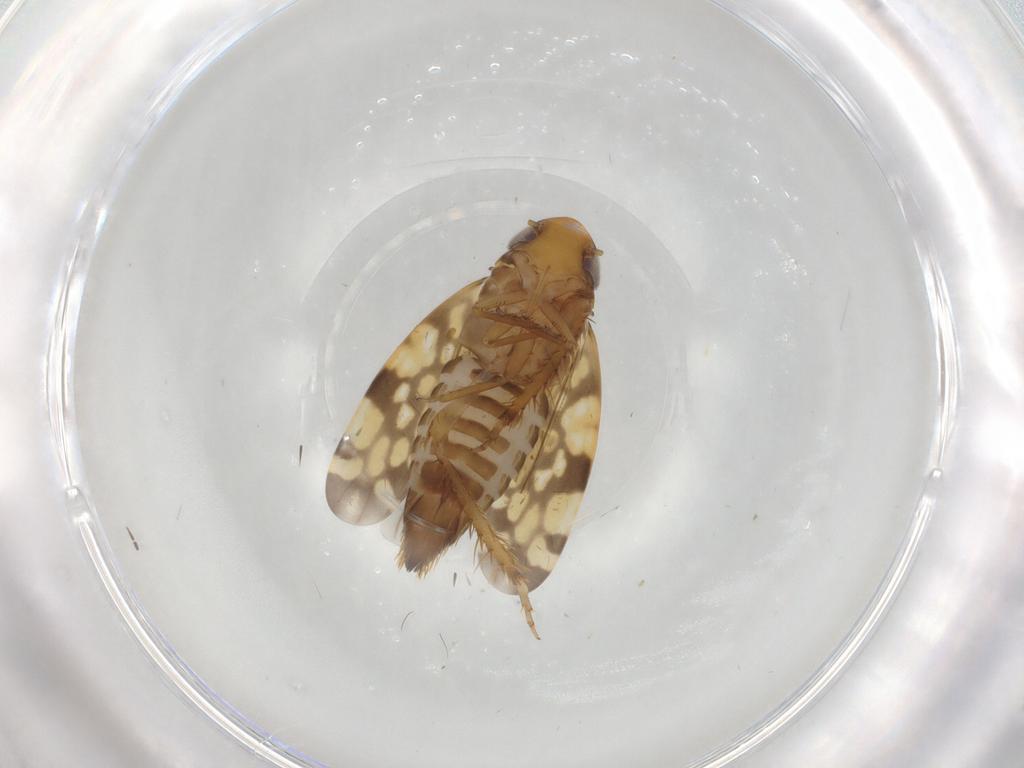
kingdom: Animalia
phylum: Arthropoda
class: Insecta
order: Hemiptera
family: Cicadellidae
